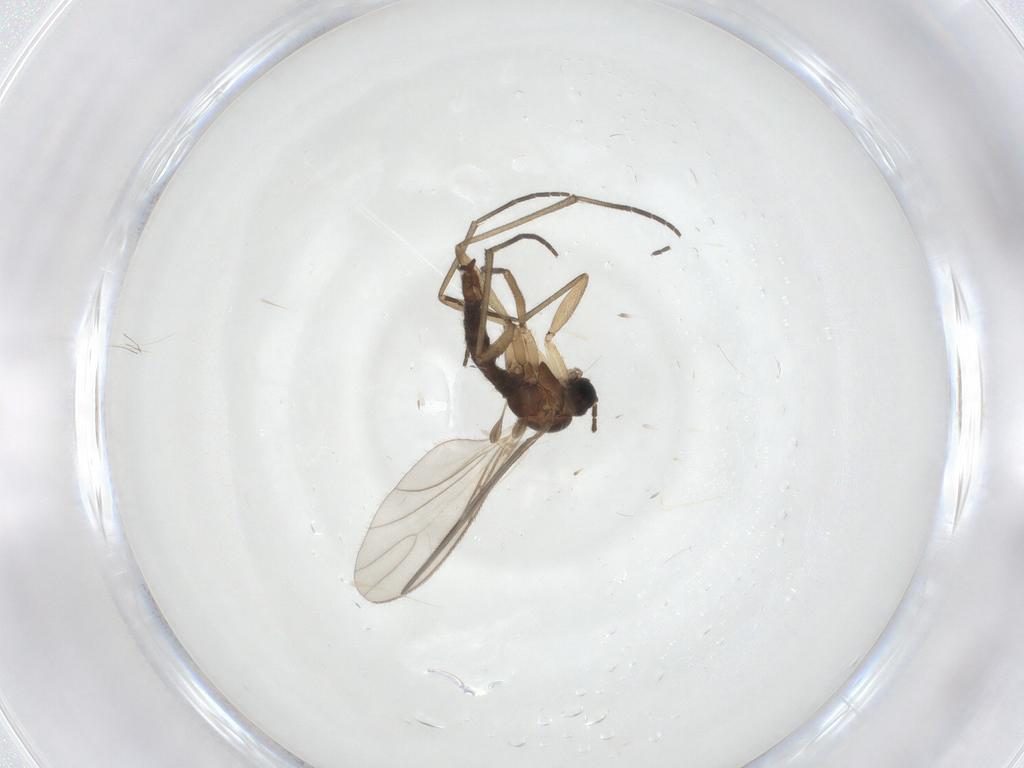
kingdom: Animalia
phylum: Arthropoda
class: Insecta
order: Diptera
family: Sciaridae
